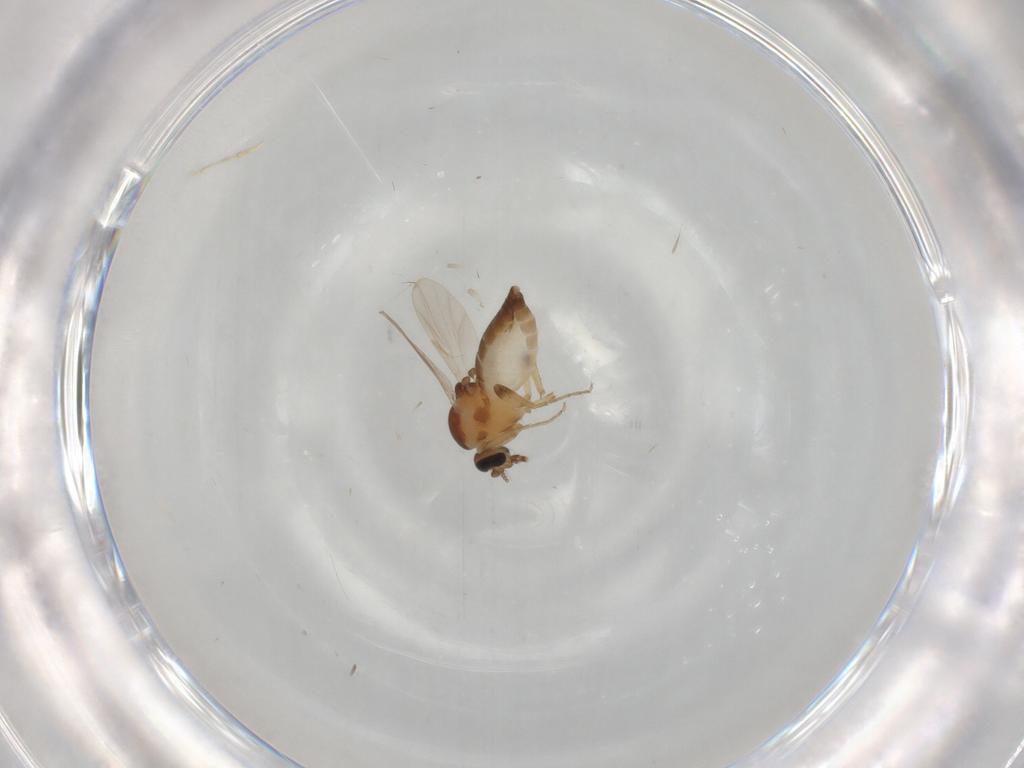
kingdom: Animalia
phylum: Arthropoda
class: Insecta
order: Diptera
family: Ceratopogonidae
